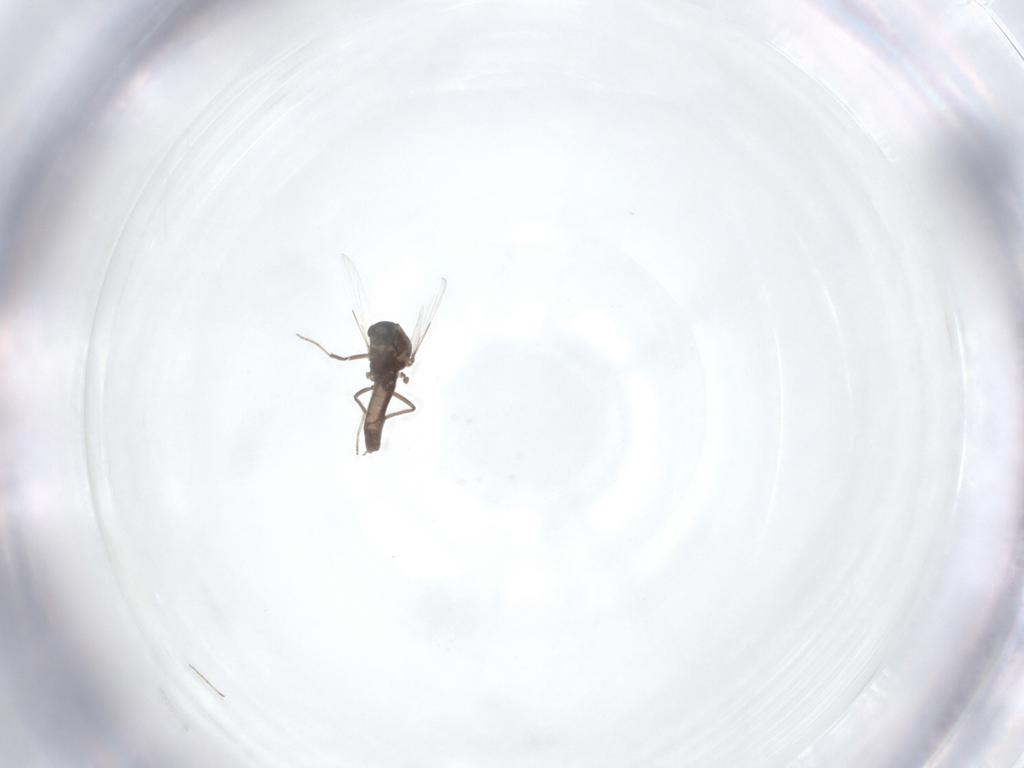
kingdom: Animalia
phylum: Arthropoda
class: Insecta
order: Diptera
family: Ceratopogonidae
